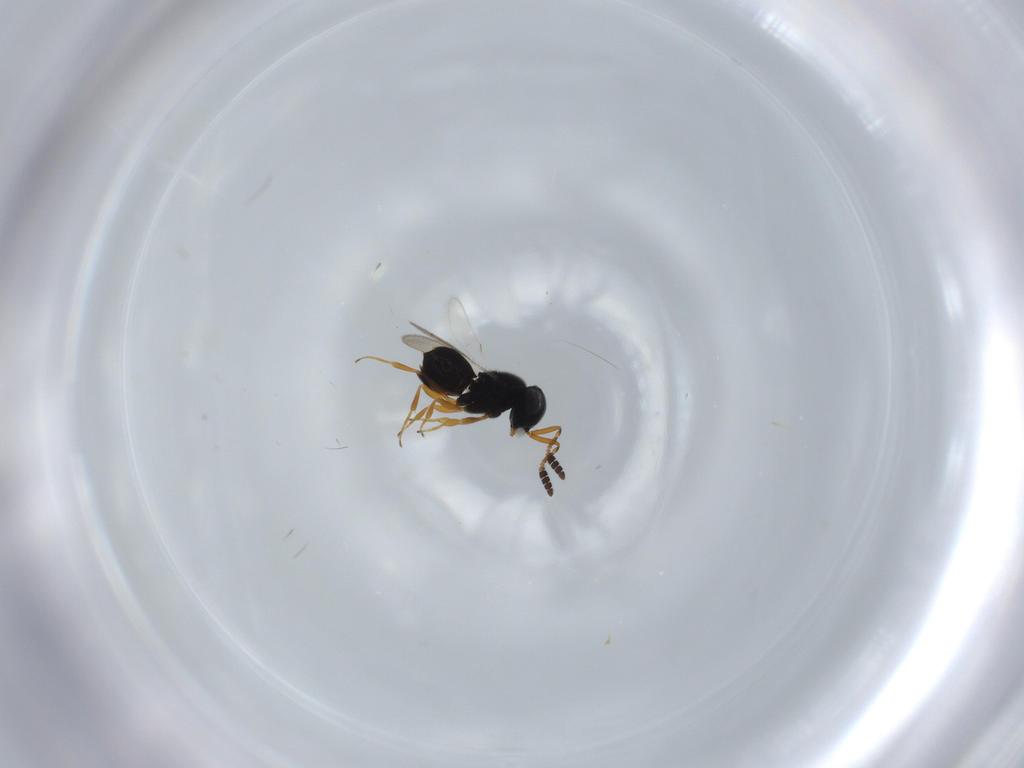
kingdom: Animalia
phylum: Arthropoda
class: Insecta
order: Hymenoptera
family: Scelionidae
